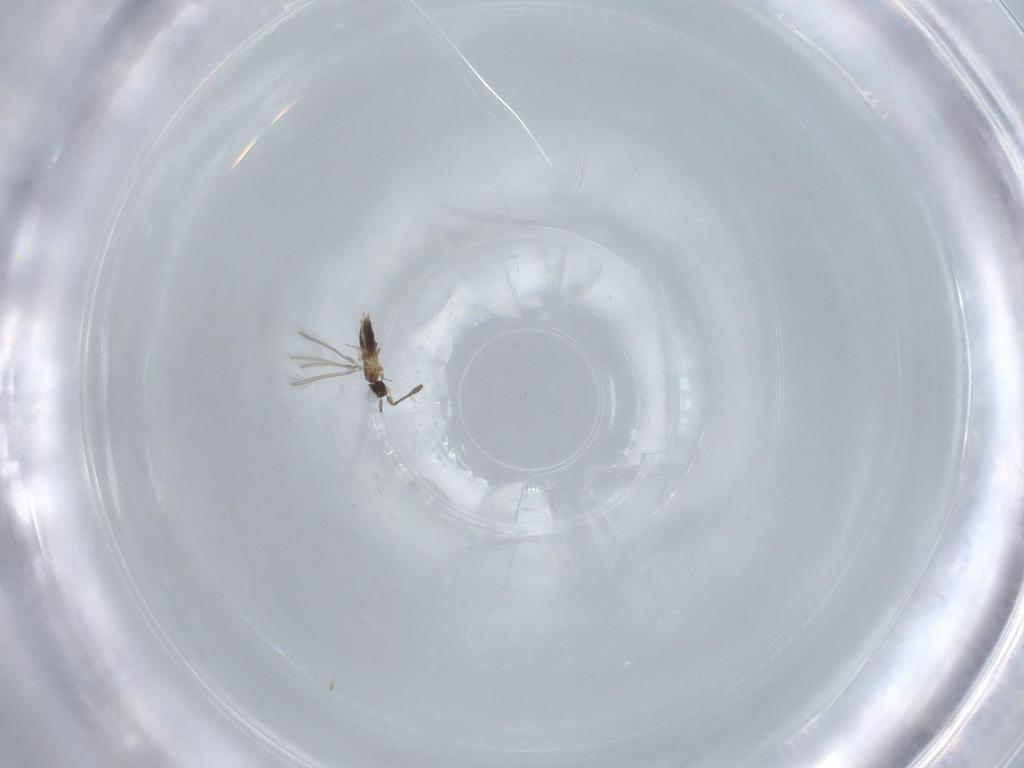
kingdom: Animalia
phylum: Arthropoda
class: Insecta
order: Hymenoptera
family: Mymaridae
